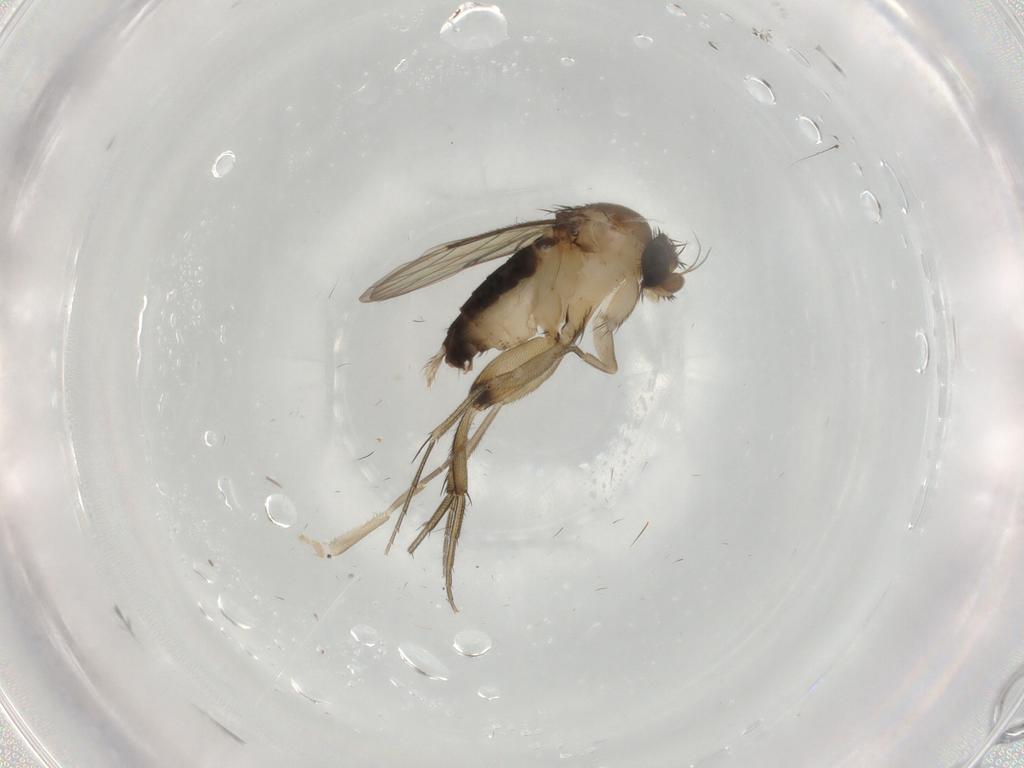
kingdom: Animalia
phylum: Arthropoda
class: Insecta
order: Diptera
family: Phoridae
